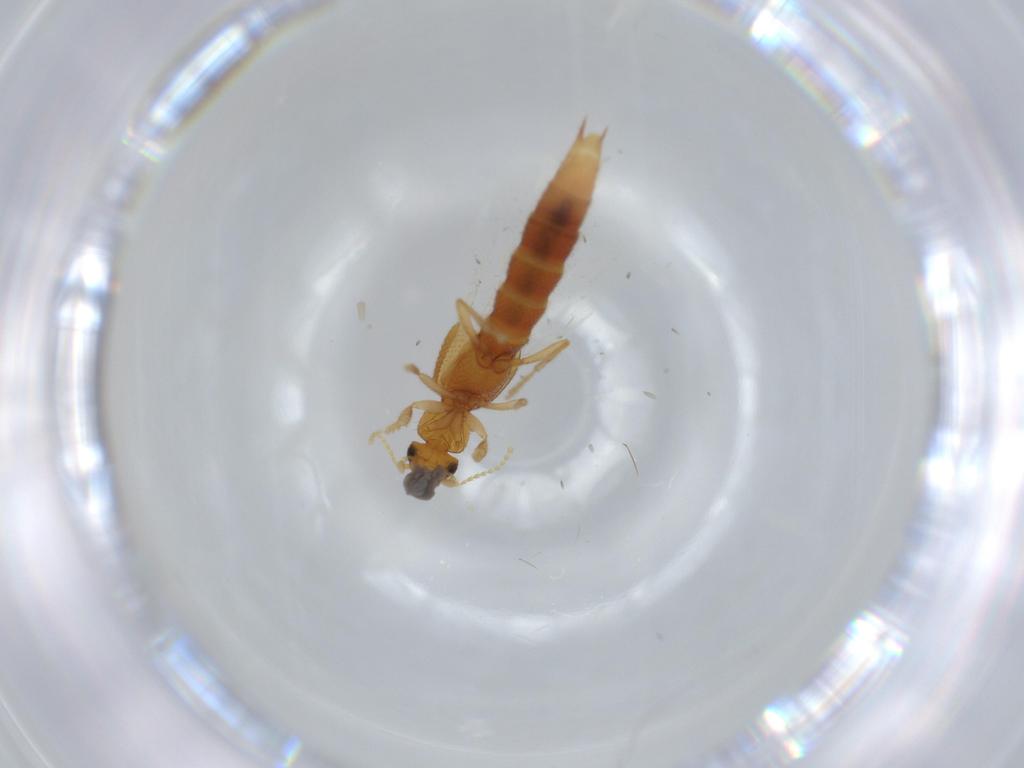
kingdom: Animalia
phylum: Arthropoda
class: Insecta
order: Coleoptera
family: Staphylinidae
